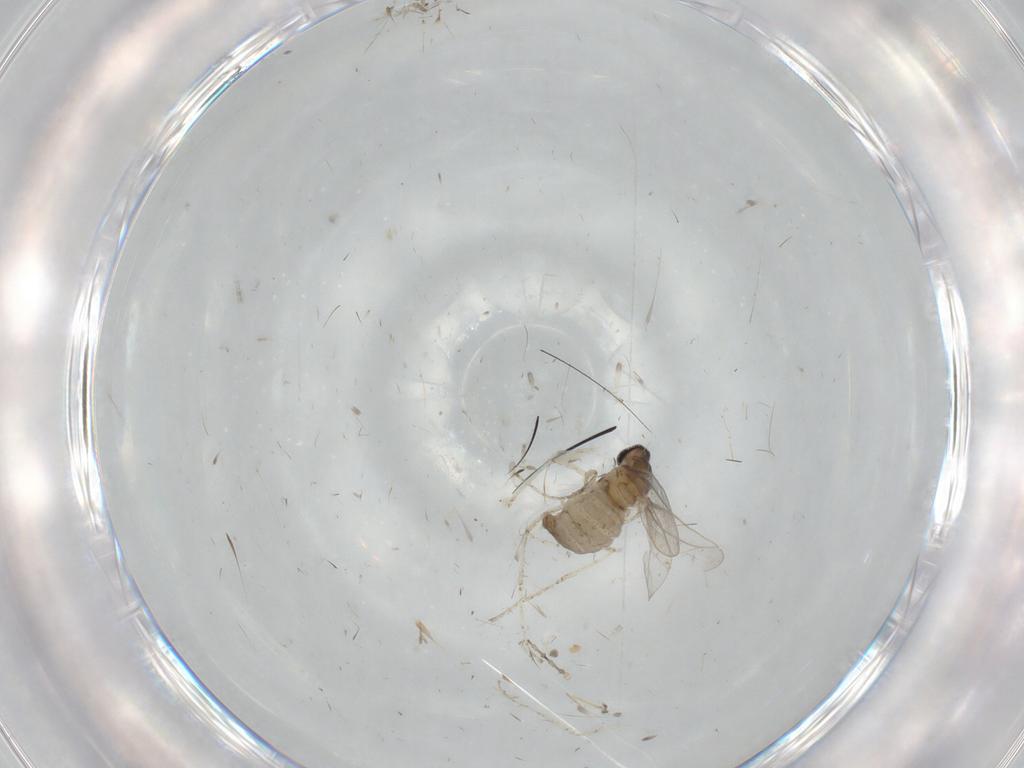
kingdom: Animalia
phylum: Arthropoda
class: Insecta
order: Diptera
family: Cecidomyiidae
